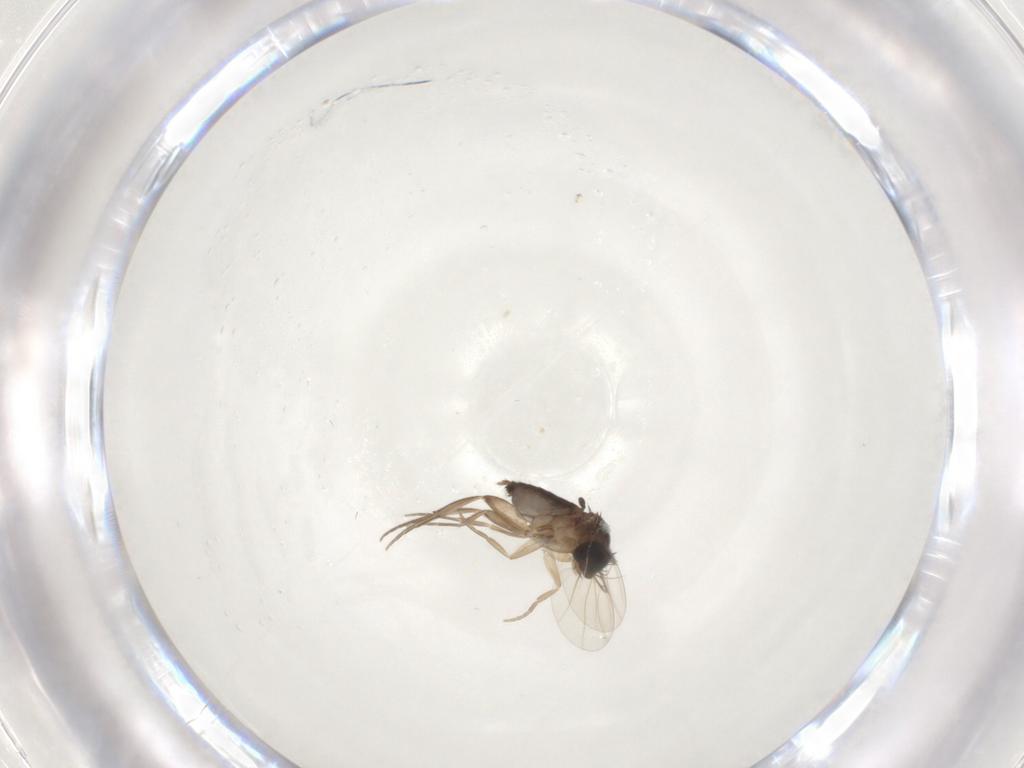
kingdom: Animalia
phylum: Arthropoda
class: Insecta
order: Diptera
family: Phoridae
